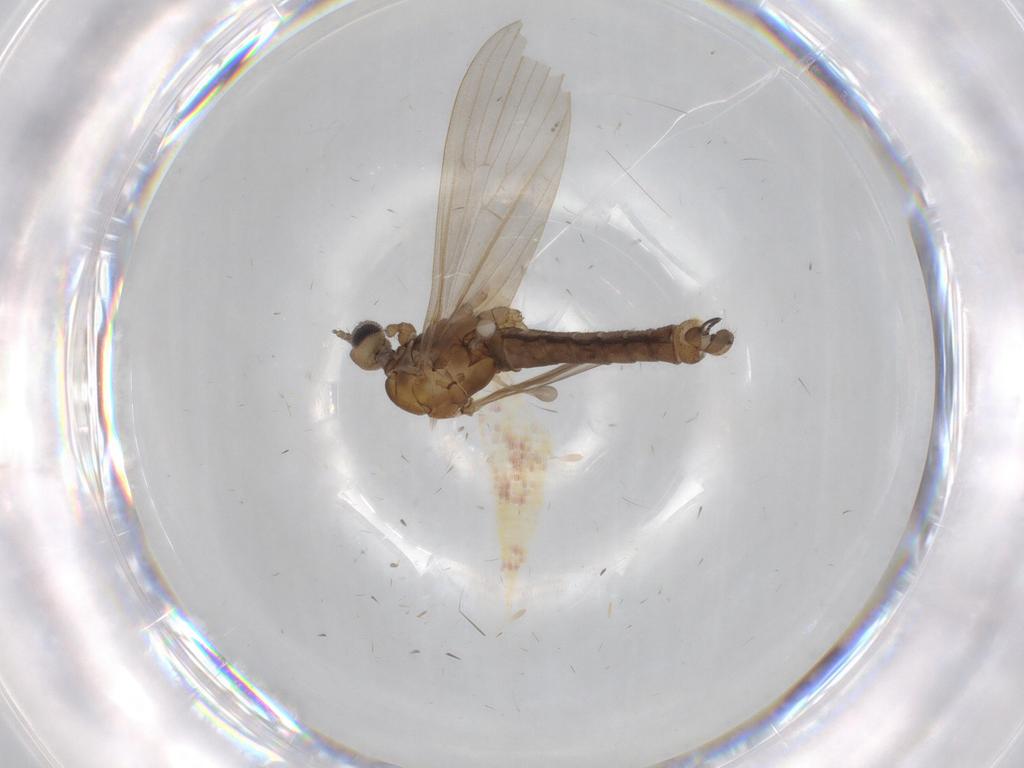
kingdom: Animalia
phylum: Arthropoda
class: Insecta
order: Diptera
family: Limoniidae
